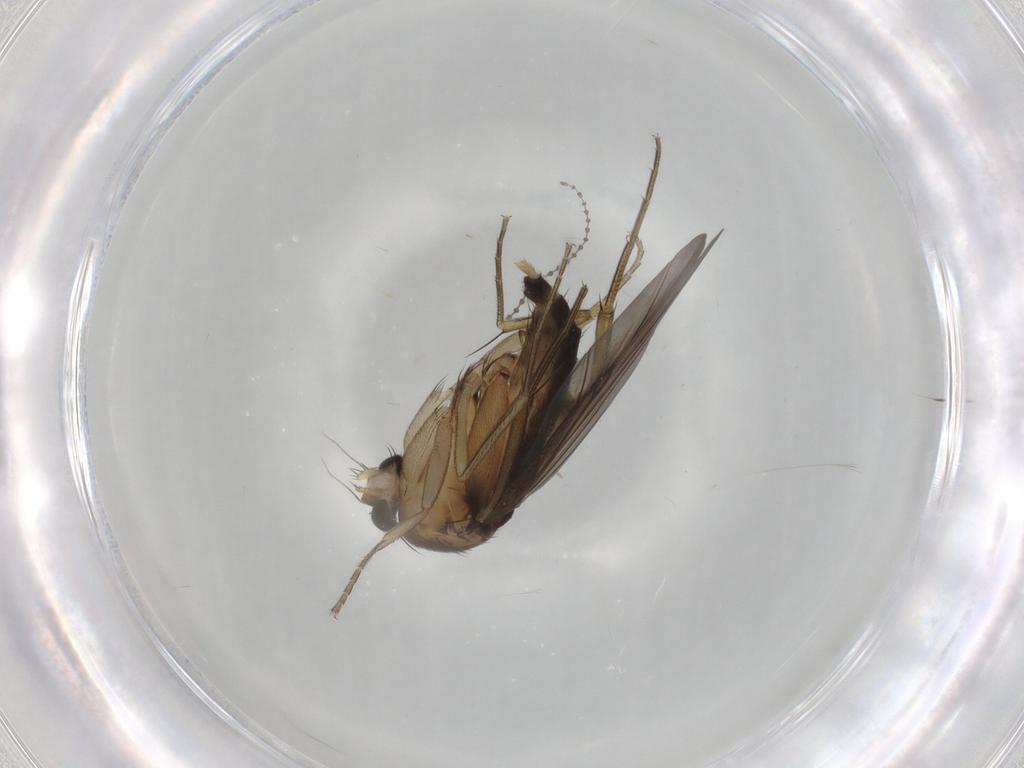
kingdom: Animalia
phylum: Arthropoda
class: Insecta
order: Diptera
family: Phoridae
